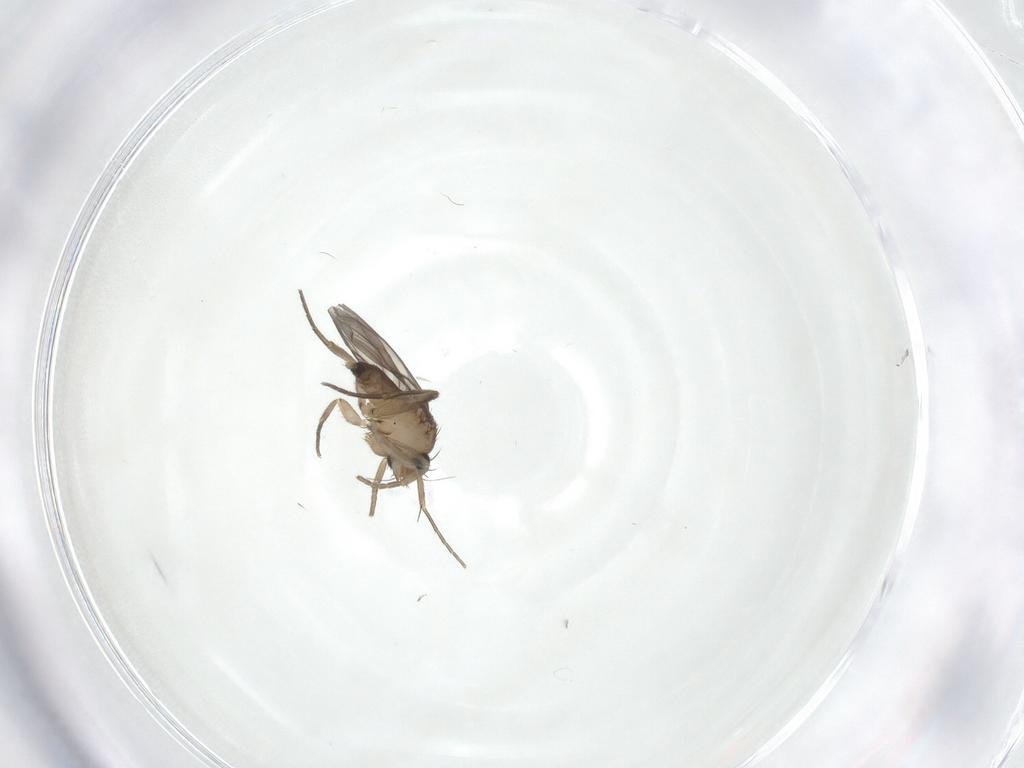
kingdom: Animalia
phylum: Arthropoda
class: Insecta
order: Diptera
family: Phoridae
